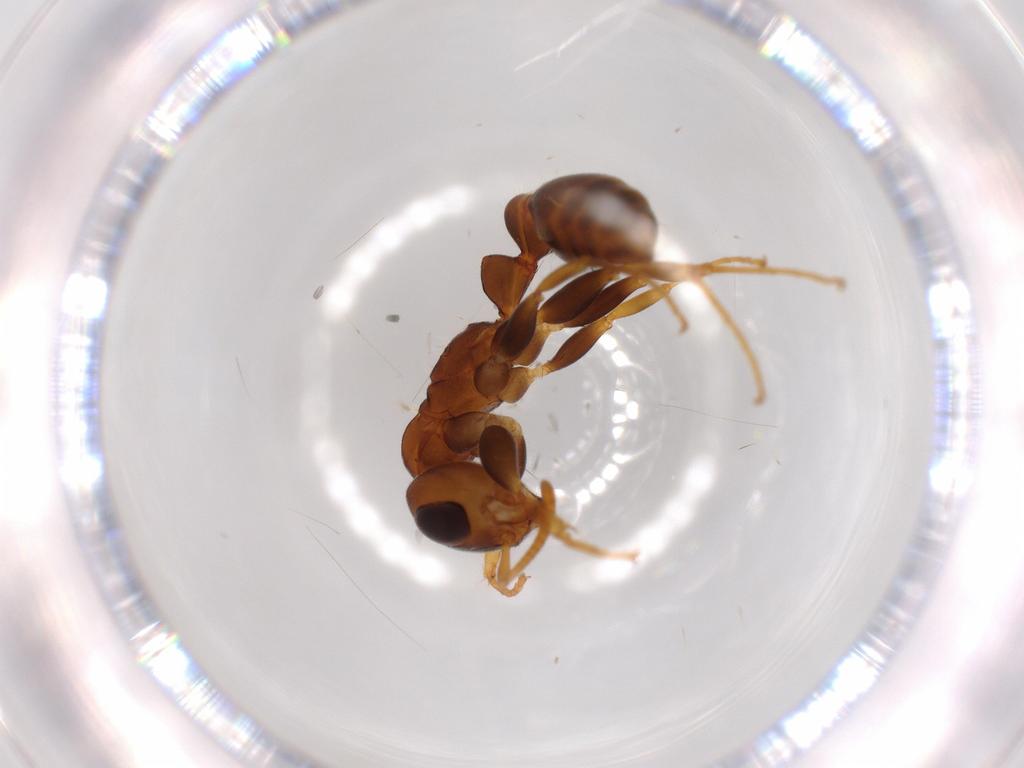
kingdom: Animalia
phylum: Arthropoda
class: Insecta
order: Hymenoptera
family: Formicidae
